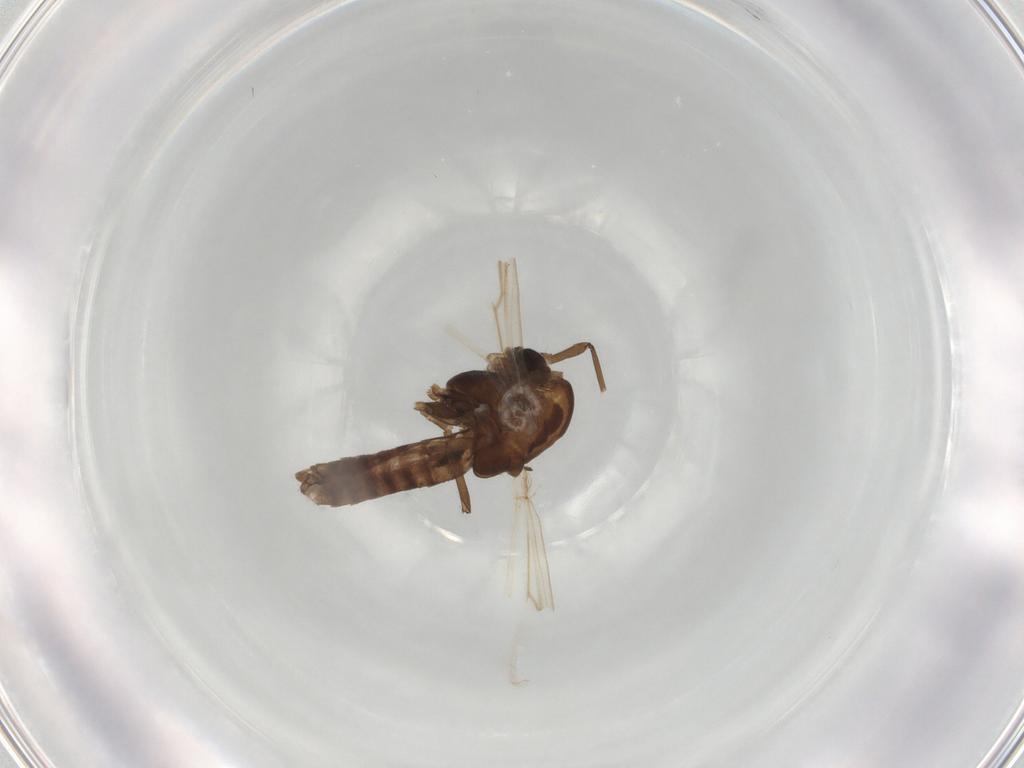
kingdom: Animalia
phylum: Arthropoda
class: Insecta
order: Diptera
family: Chironomidae
